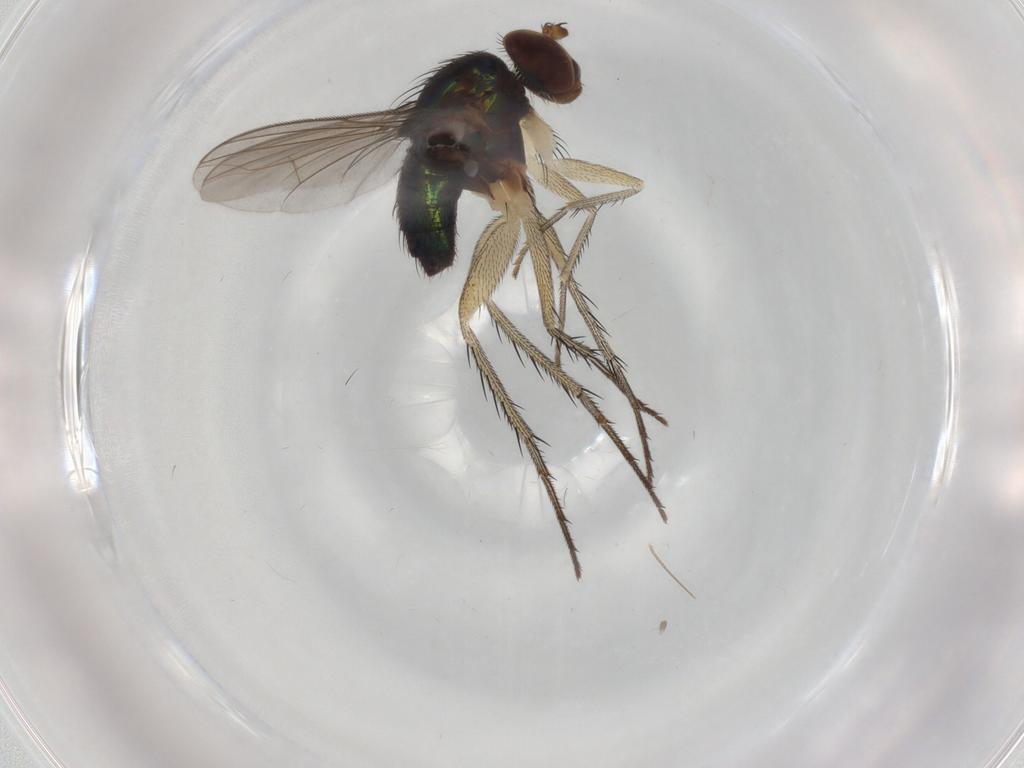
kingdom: Animalia
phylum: Arthropoda
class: Insecta
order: Diptera
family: Dolichopodidae
